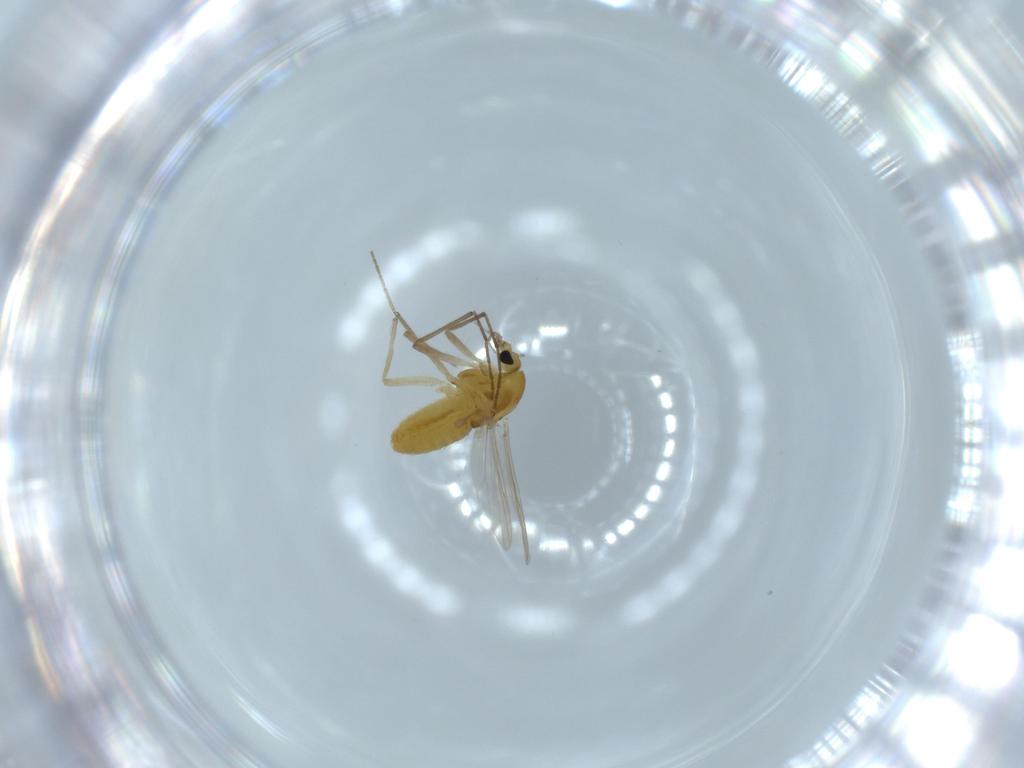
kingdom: Animalia
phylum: Arthropoda
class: Insecta
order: Diptera
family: Chironomidae
